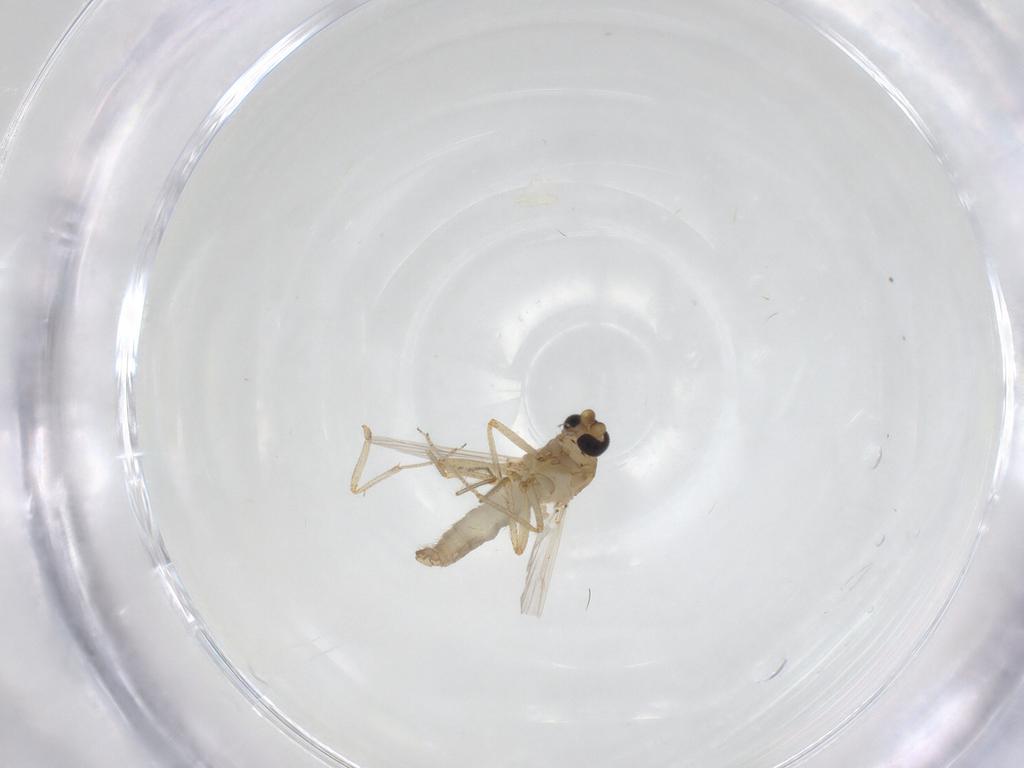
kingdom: Animalia
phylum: Arthropoda
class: Insecta
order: Diptera
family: Ceratopogonidae
